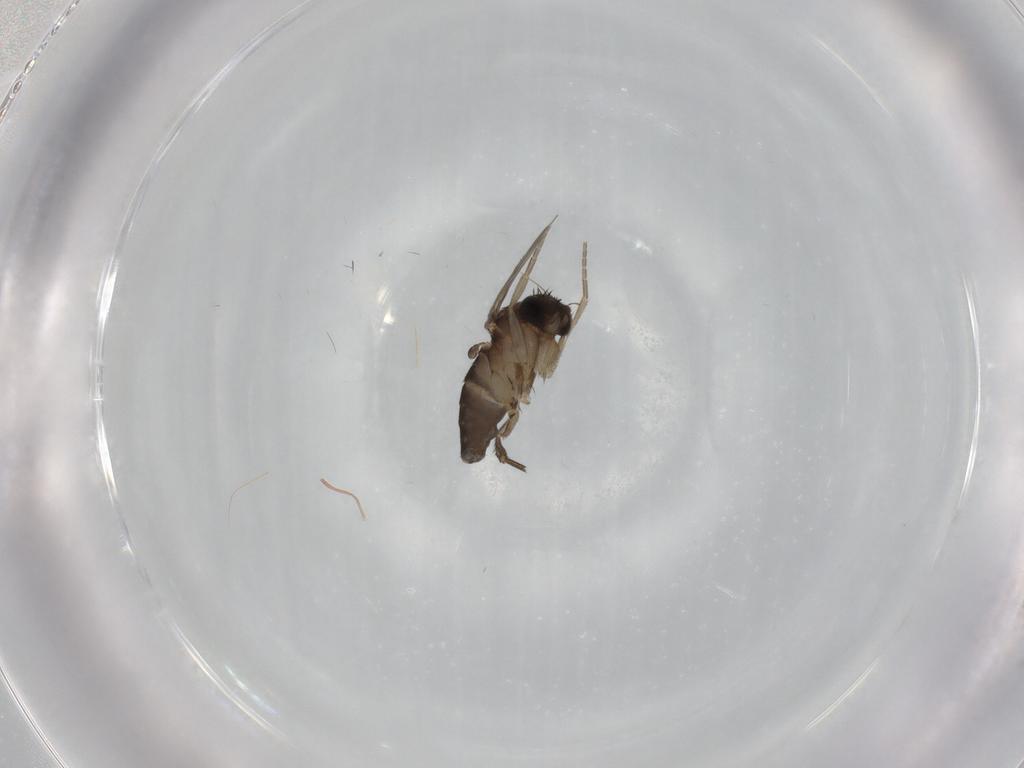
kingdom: Animalia
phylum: Arthropoda
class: Insecta
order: Diptera
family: Phoridae
